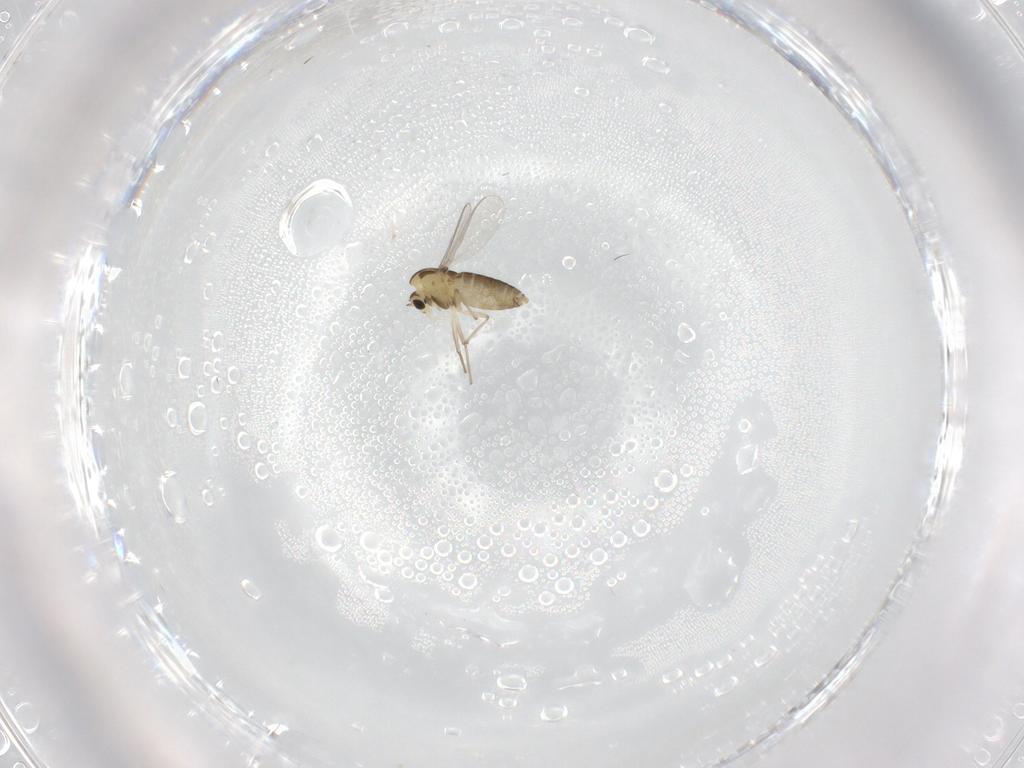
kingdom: Animalia
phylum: Arthropoda
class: Insecta
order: Diptera
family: Chironomidae
